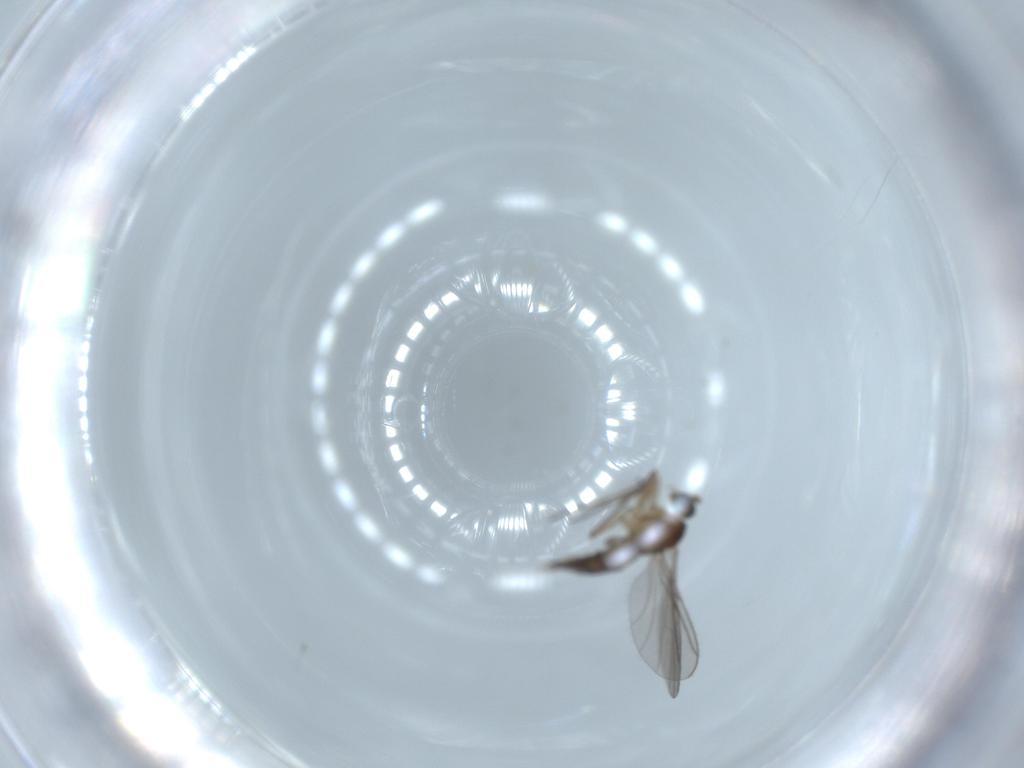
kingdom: Animalia
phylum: Arthropoda
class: Insecta
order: Diptera
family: Sciaridae
